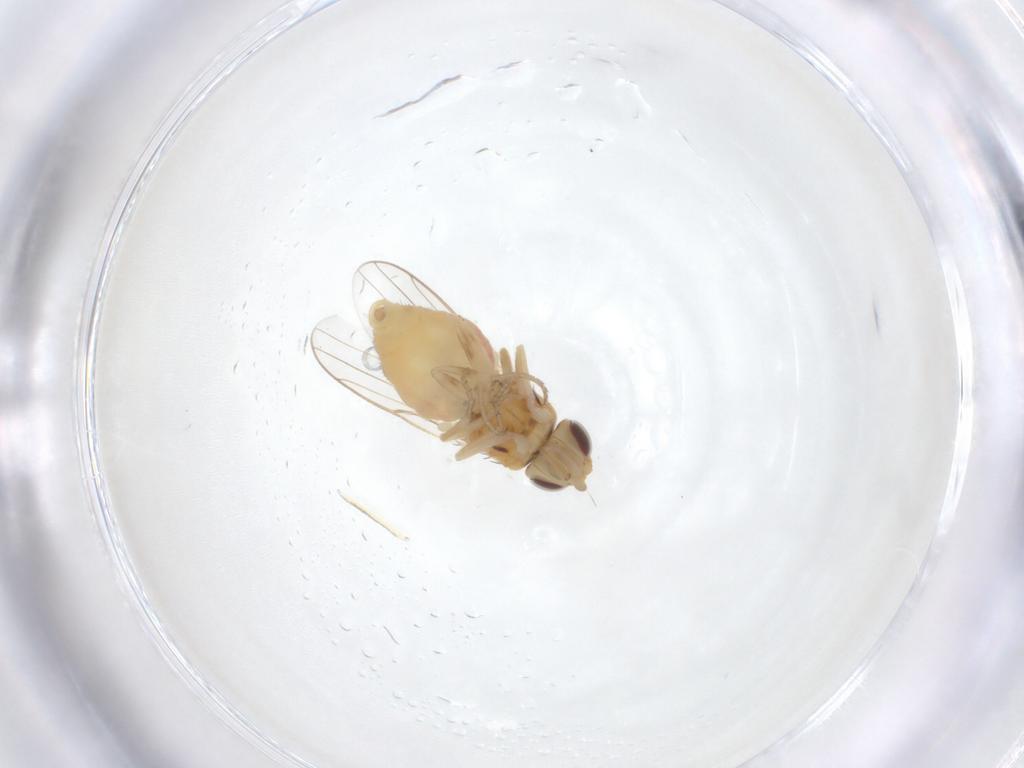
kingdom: Animalia
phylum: Arthropoda
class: Insecta
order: Diptera
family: Chloropidae
